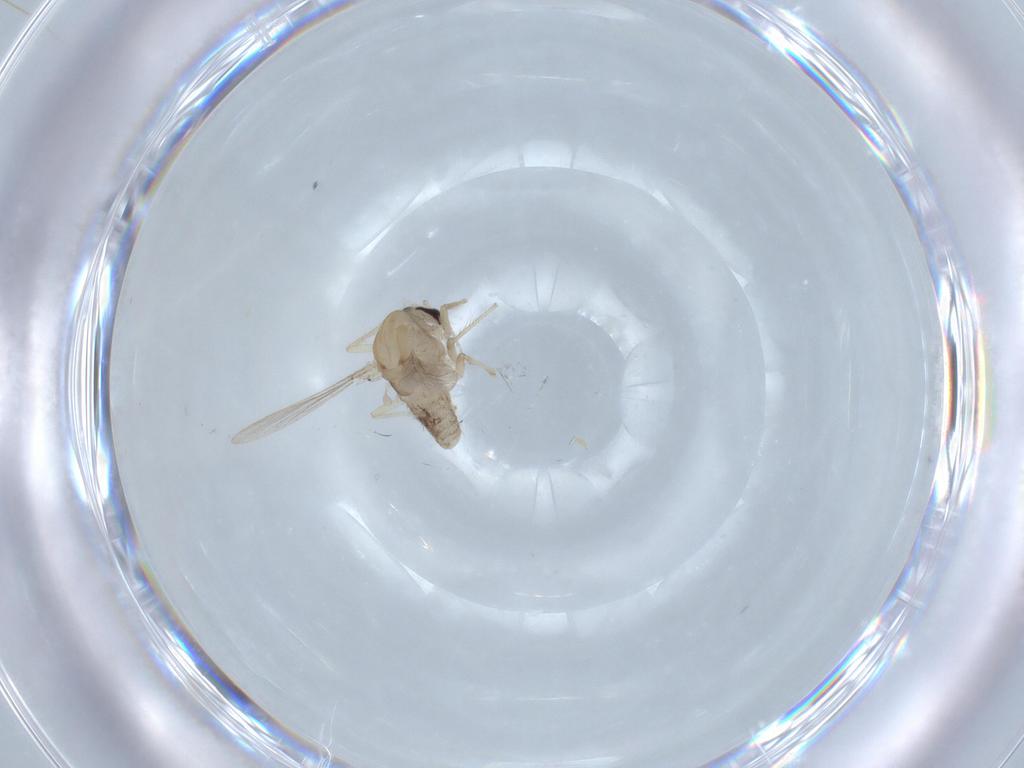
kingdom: Animalia
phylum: Arthropoda
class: Insecta
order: Diptera
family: Chironomidae
